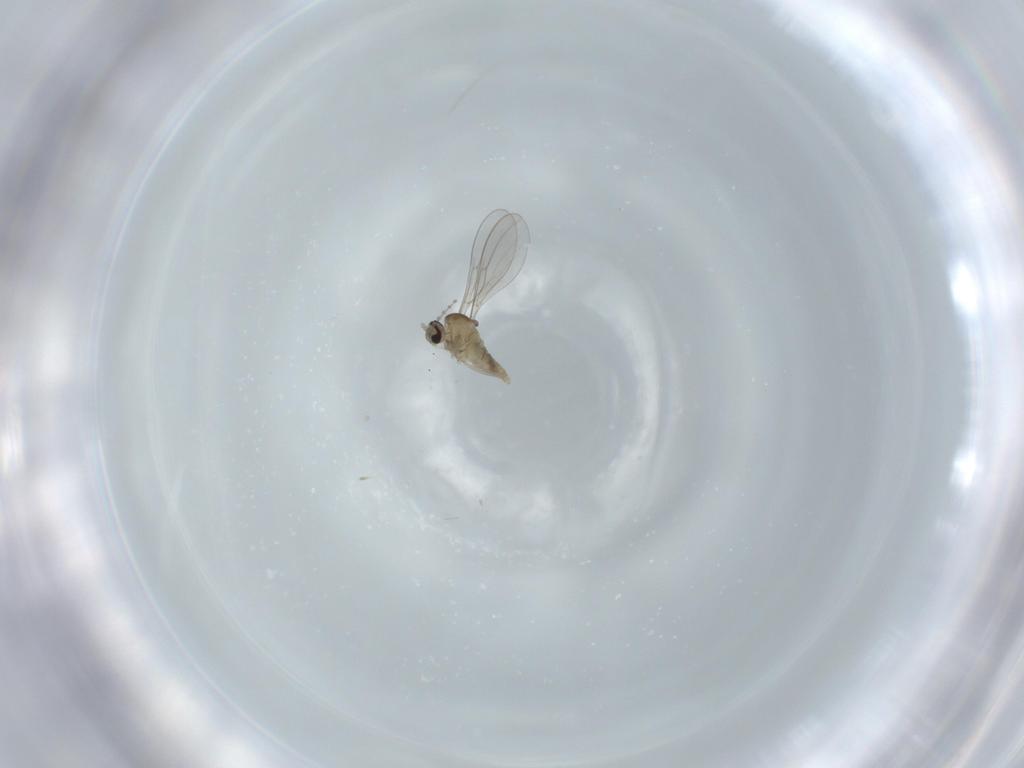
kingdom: Animalia
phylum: Arthropoda
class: Insecta
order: Diptera
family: Cecidomyiidae
